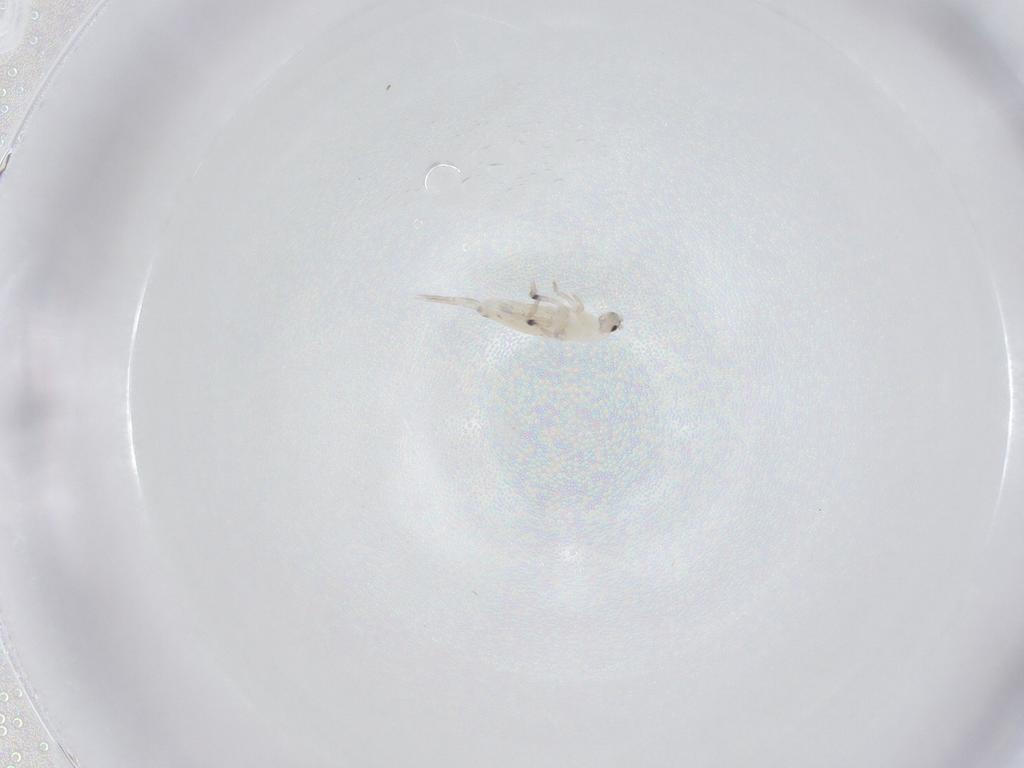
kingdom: Animalia
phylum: Arthropoda
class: Collembola
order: Entomobryomorpha
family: Entomobryidae
